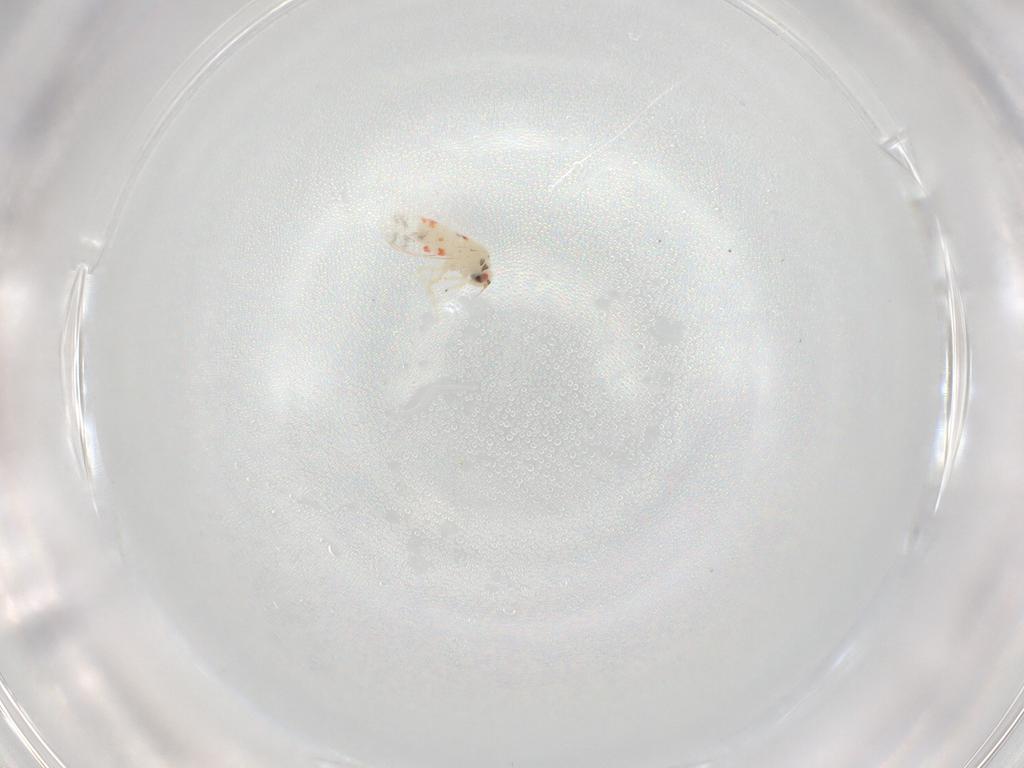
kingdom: Animalia
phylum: Arthropoda
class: Insecta
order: Hemiptera
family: Aleyrodidae
